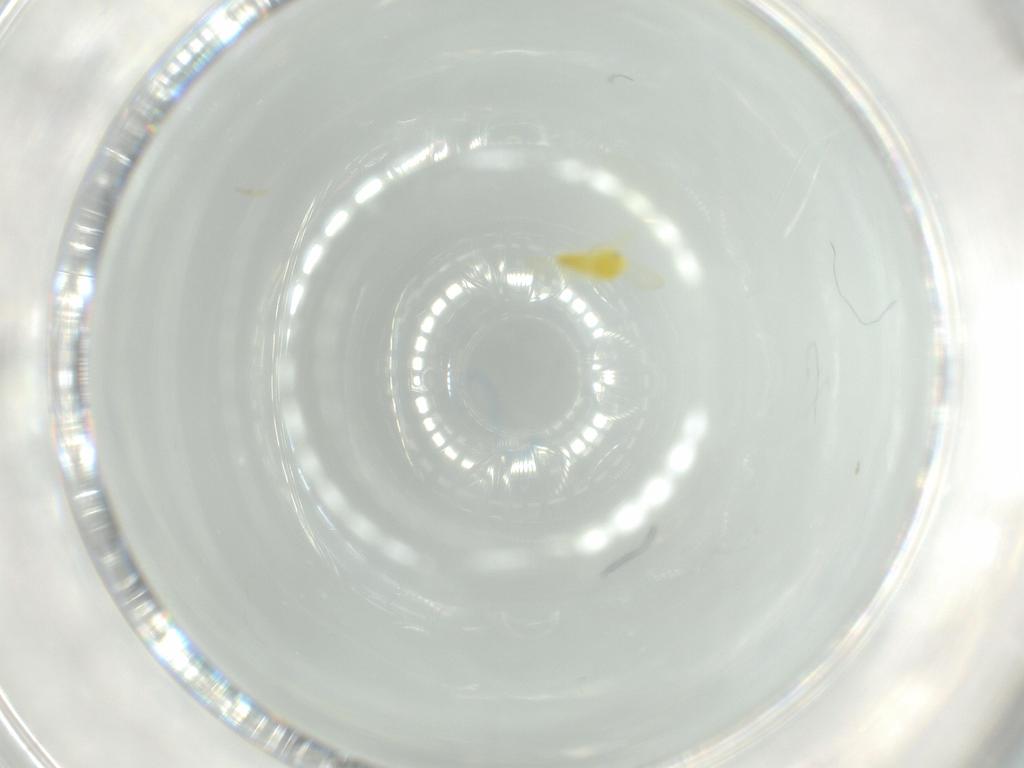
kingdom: Animalia
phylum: Arthropoda
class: Insecta
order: Hemiptera
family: Aleyrodidae
